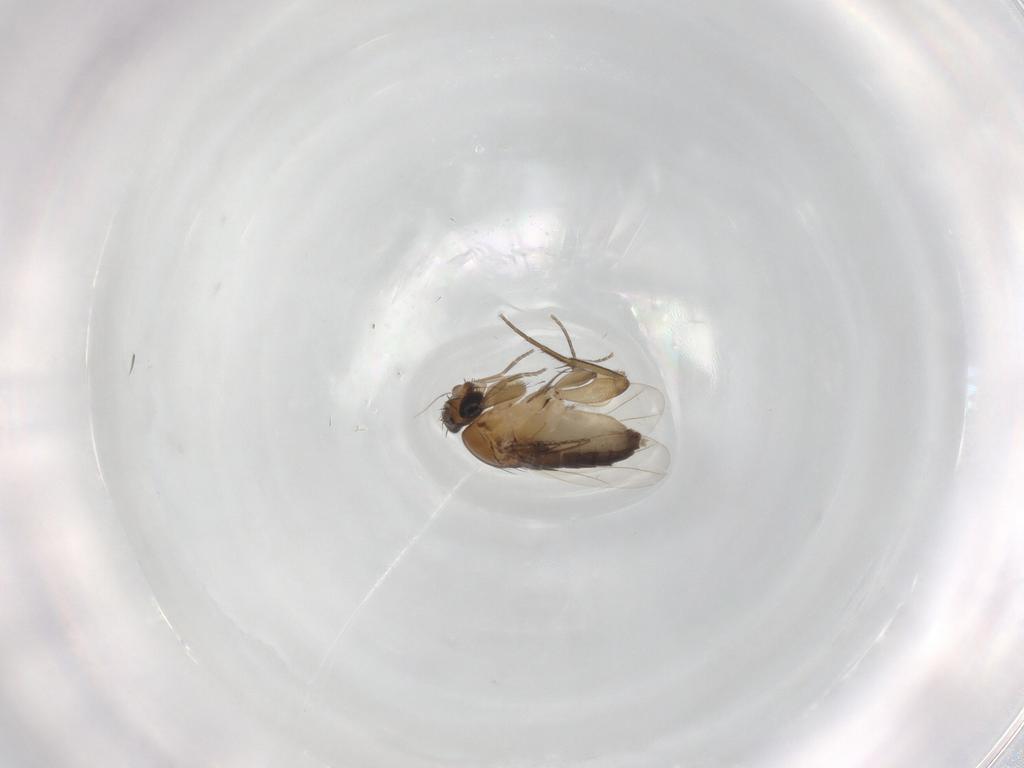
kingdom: Animalia
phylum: Arthropoda
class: Insecta
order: Diptera
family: Phoridae
